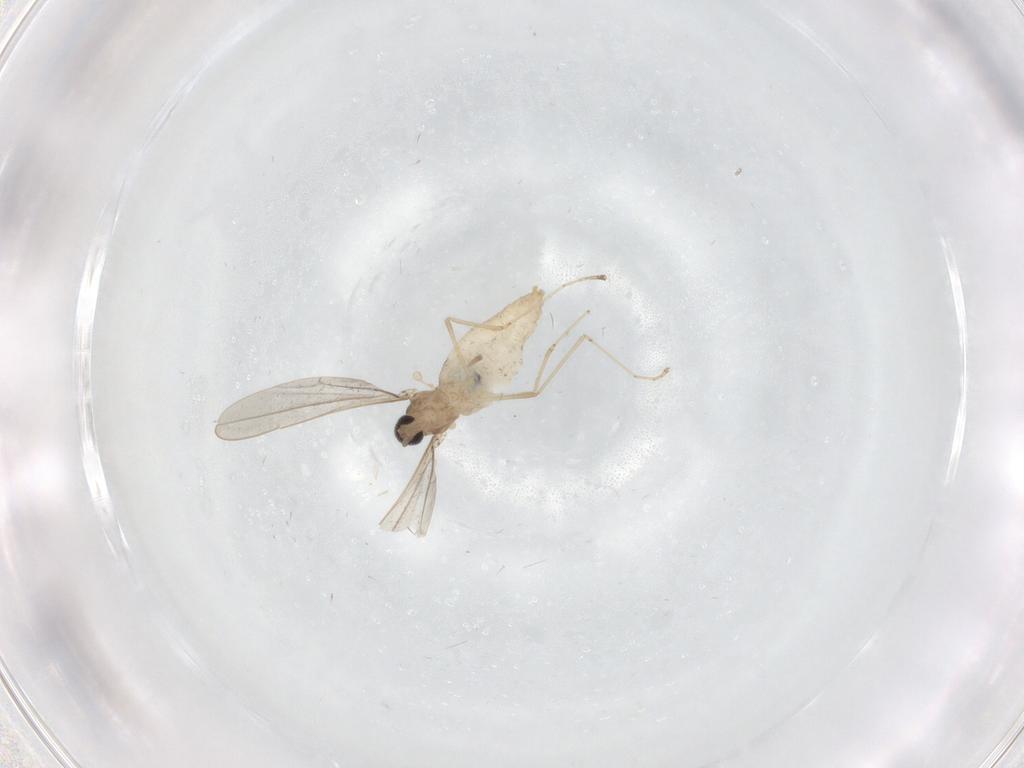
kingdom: Animalia
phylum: Arthropoda
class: Insecta
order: Diptera
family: Cecidomyiidae
